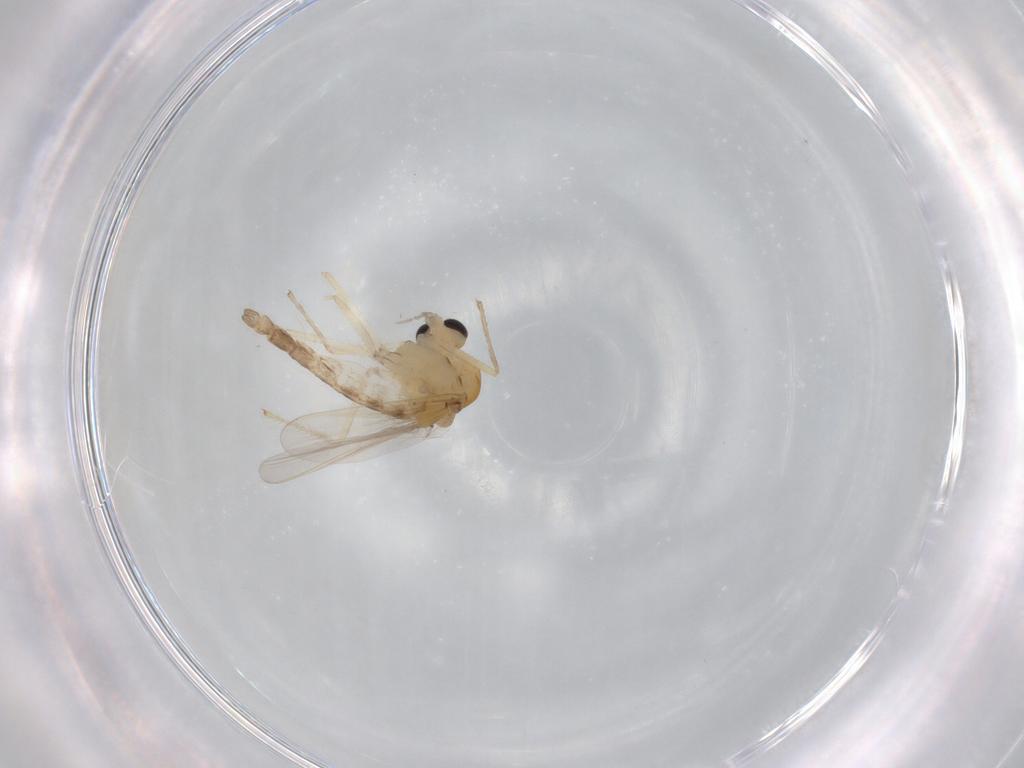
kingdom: Animalia
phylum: Arthropoda
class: Insecta
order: Diptera
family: Chironomidae
